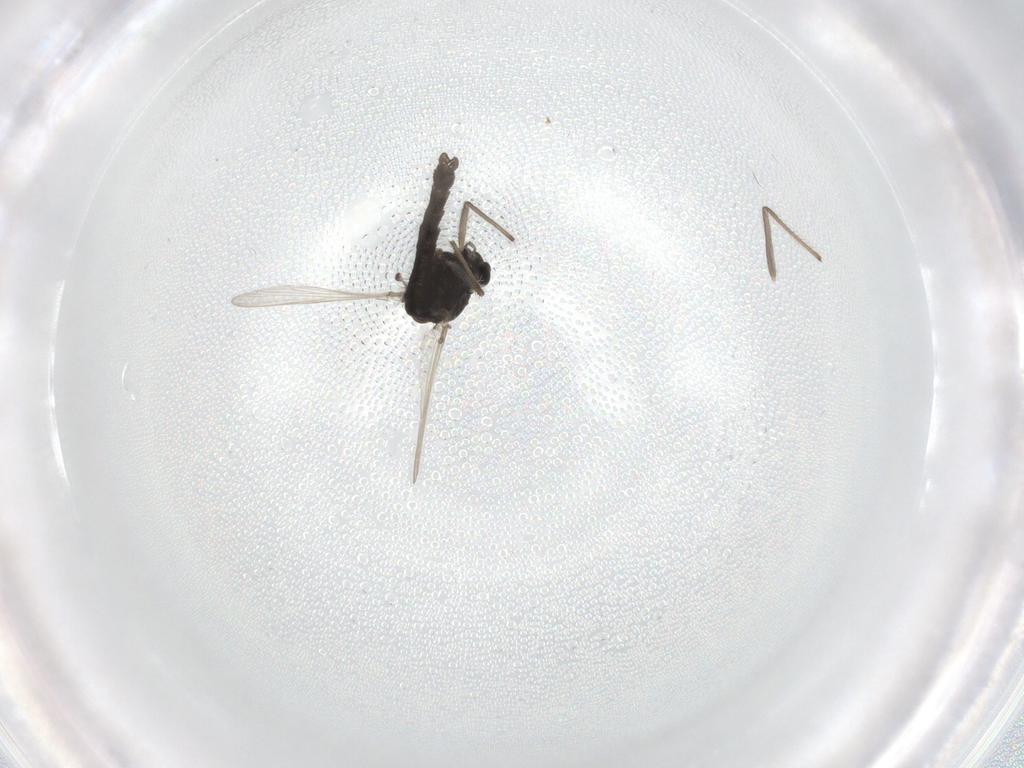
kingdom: Animalia
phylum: Arthropoda
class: Insecta
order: Diptera
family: Chironomidae
